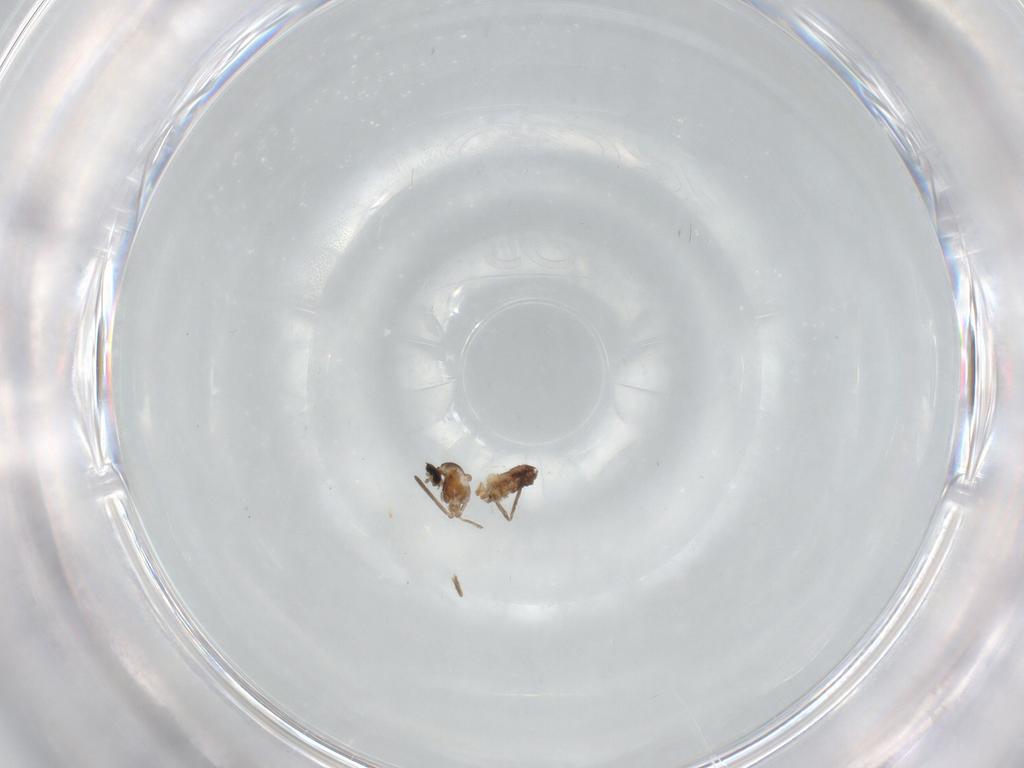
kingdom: Animalia
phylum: Arthropoda
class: Insecta
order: Diptera
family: Cecidomyiidae
